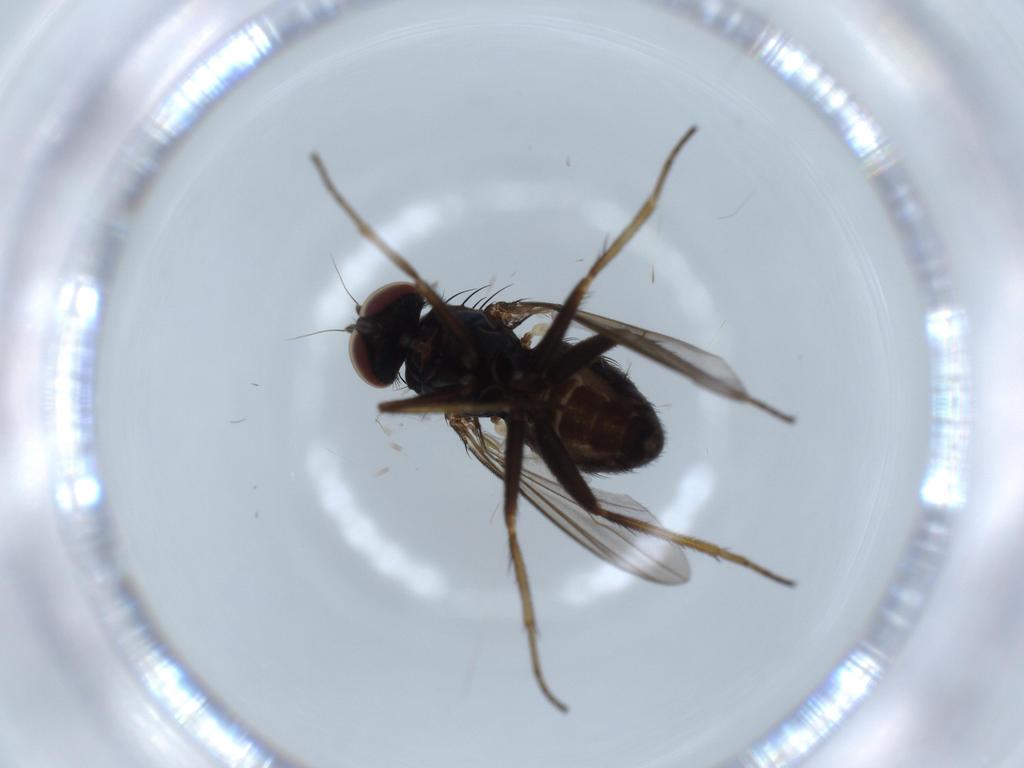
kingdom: Animalia
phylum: Arthropoda
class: Insecta
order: Diptera
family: Dolichopodidae
